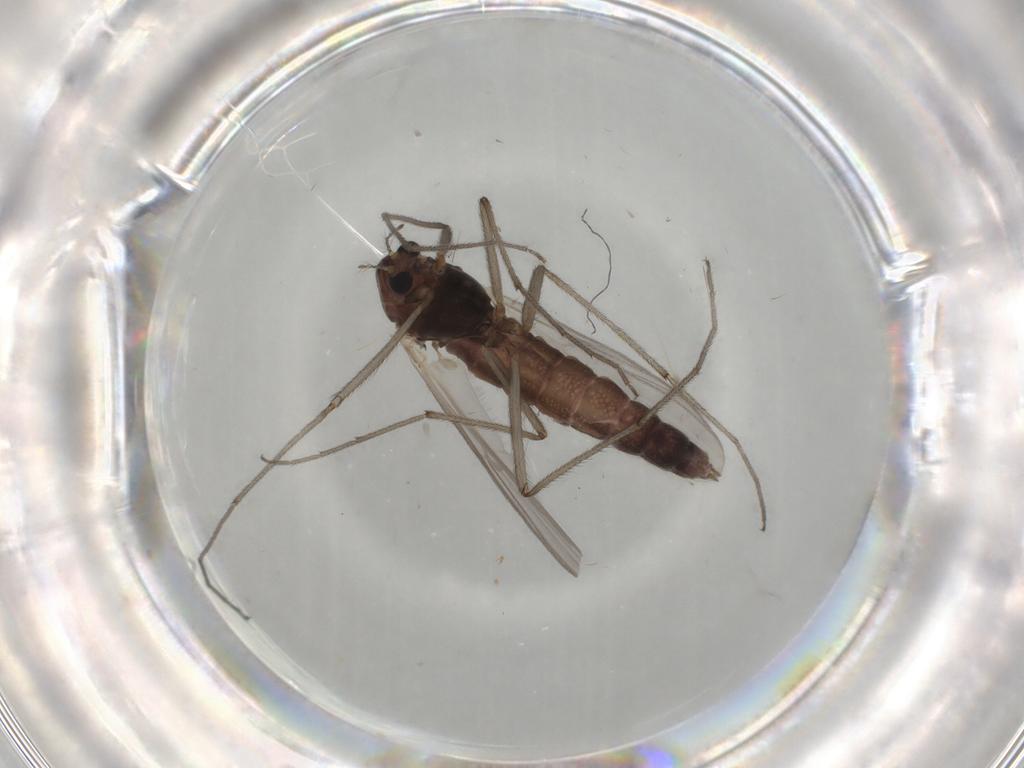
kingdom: Animalia
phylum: Arthropoda
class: Insecta
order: Diptera
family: Chironomidae
